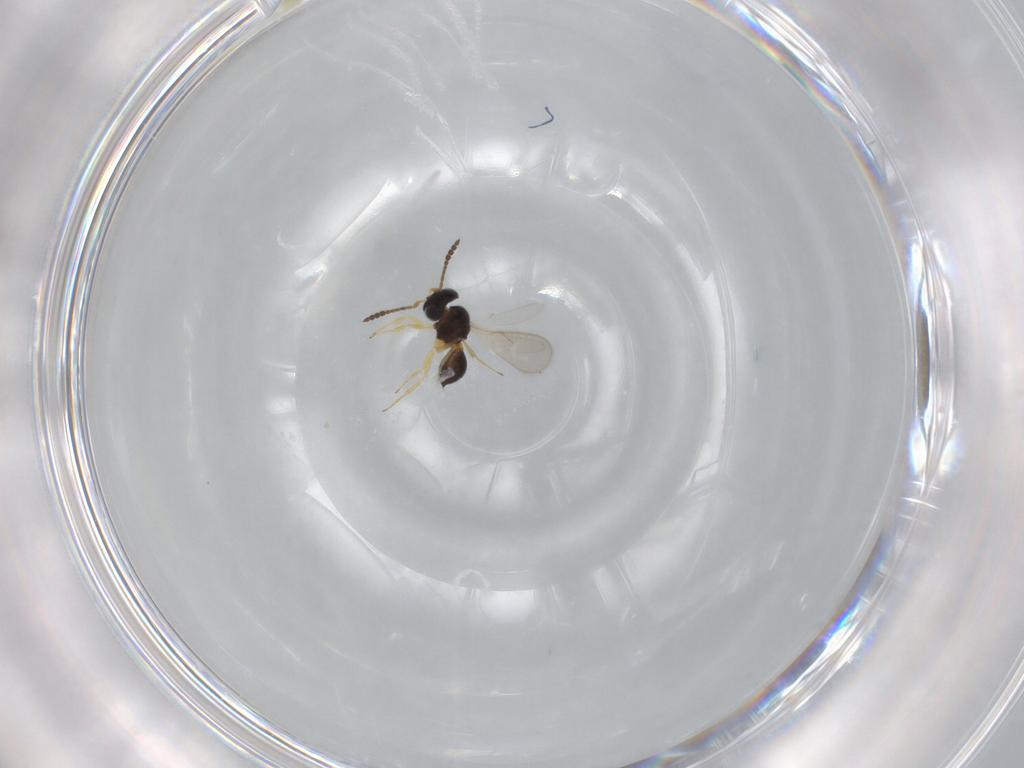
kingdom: Animalia
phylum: Arthropoda
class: Insecta
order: Hymenoptera
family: Scelionidae
